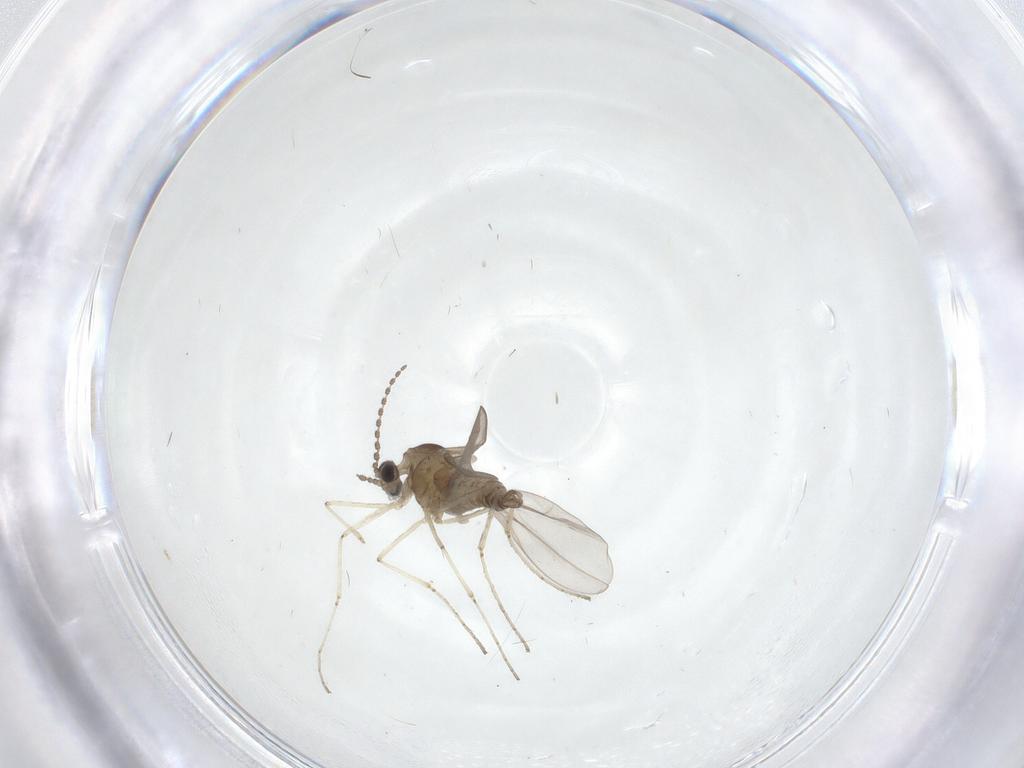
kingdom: Animalia
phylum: Arthropoda
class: Insecta
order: Diptera
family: Cecidomyiidae
